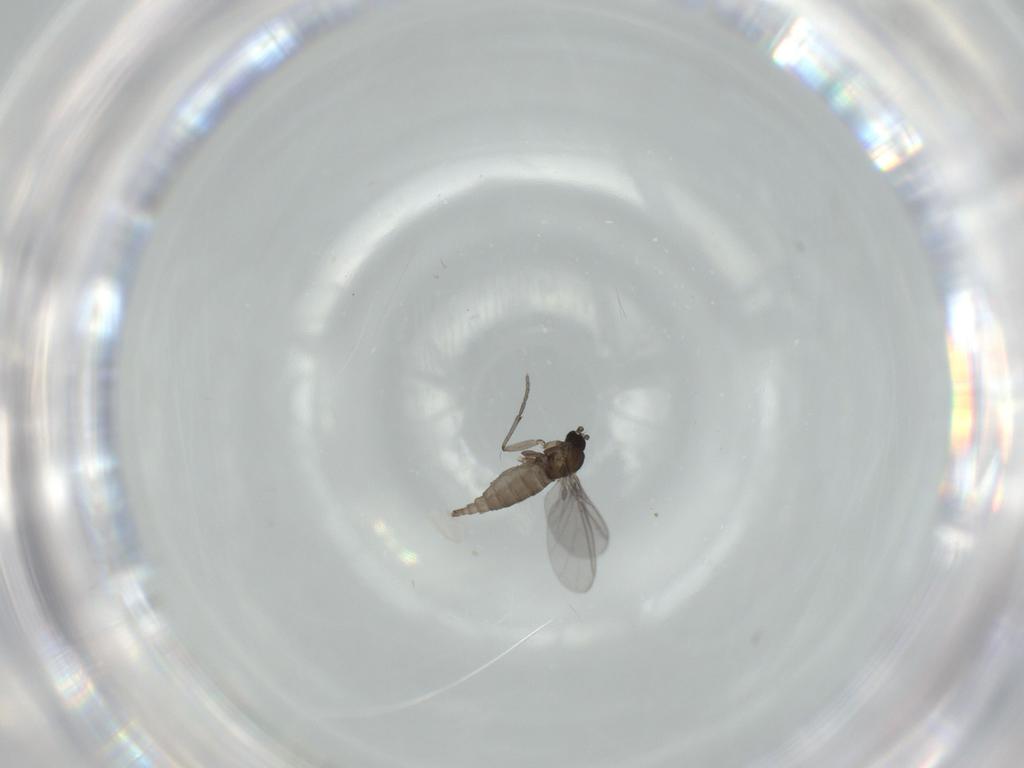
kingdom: Animalia
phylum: Arthropoda
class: Insecta
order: Diptera
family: Sciaridae
